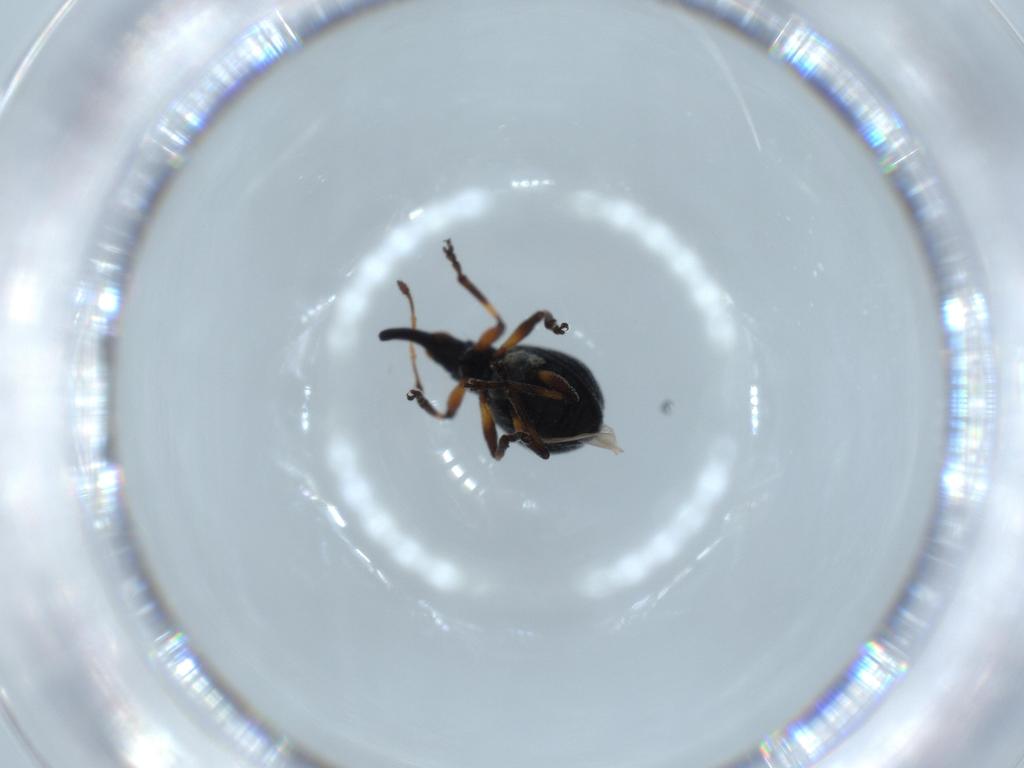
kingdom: Animalia
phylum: Arthropoda
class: Insecta
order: Coleoptera
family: Brentidae
